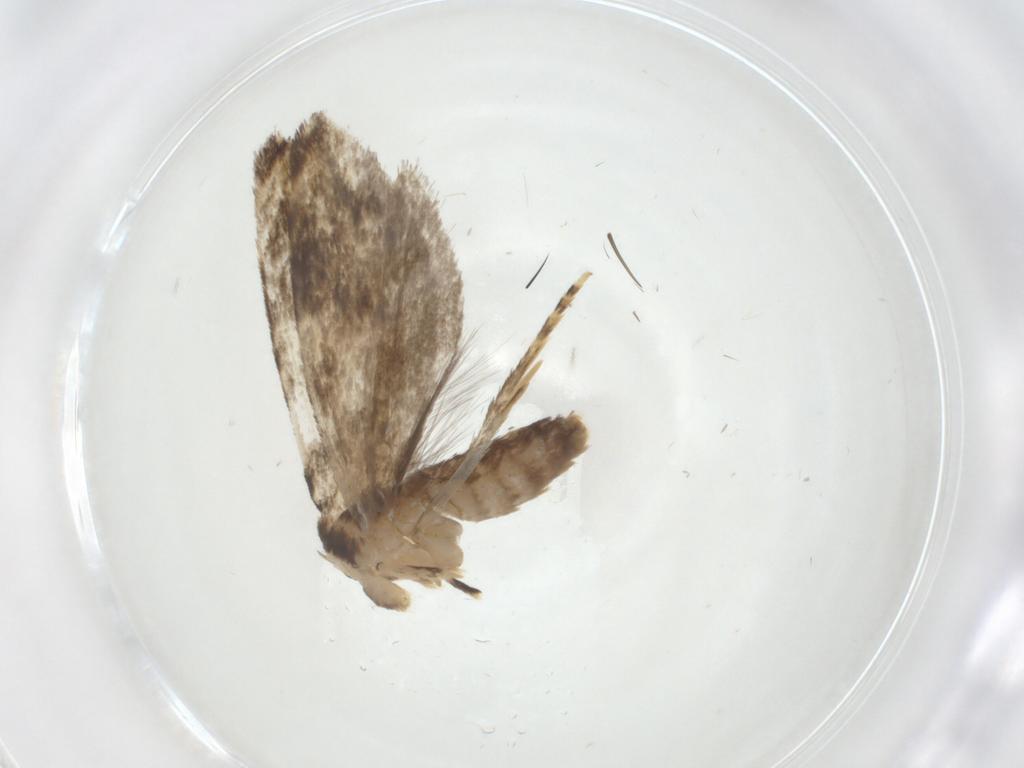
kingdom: Animalia
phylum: Arthropoda
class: Insecta
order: Lepidoptera
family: Tineidae
